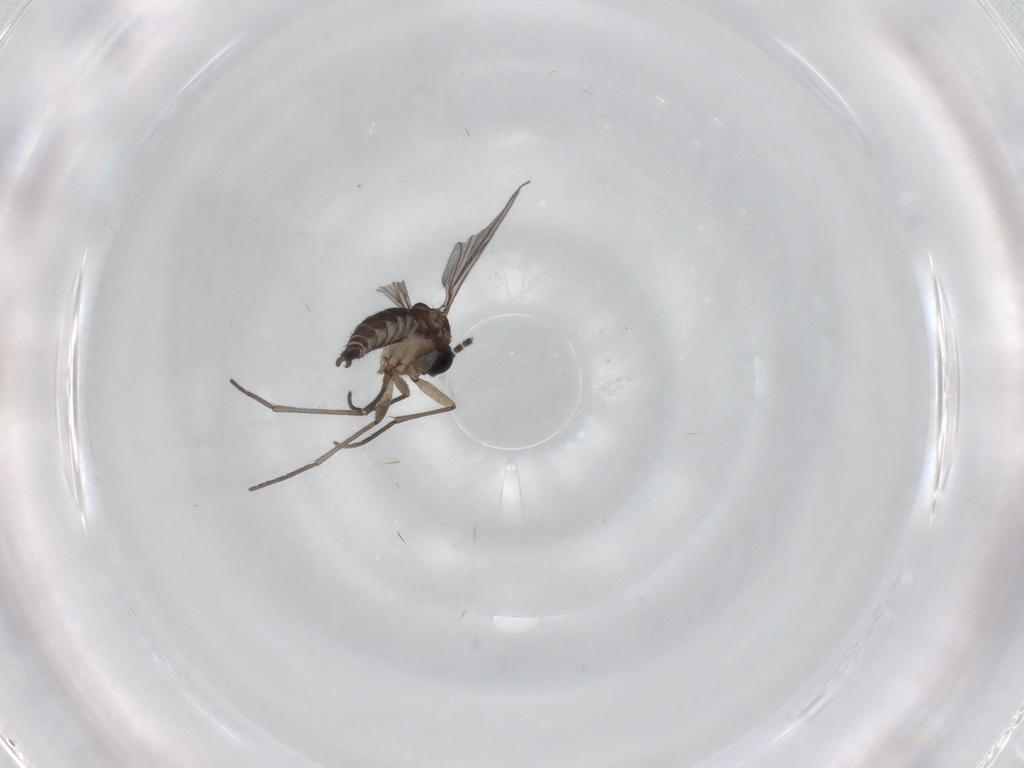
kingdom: Animalia
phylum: Arthropoda
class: Insecta
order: Diptera
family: Sciaridae
